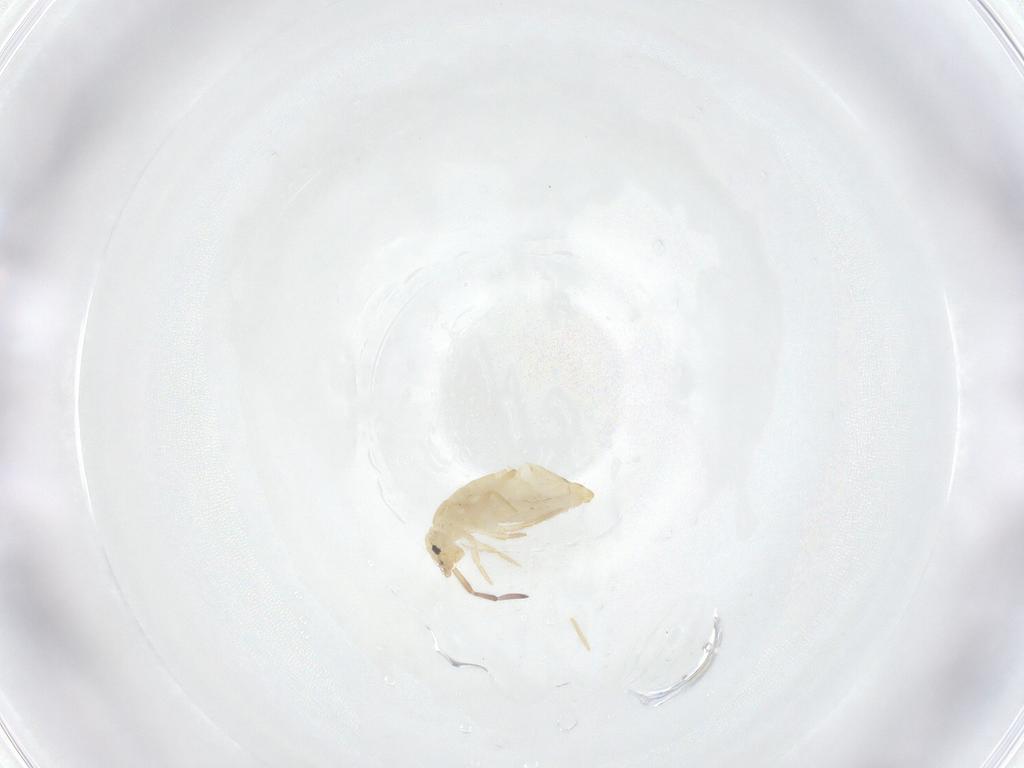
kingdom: Animalia
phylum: Arthropoda
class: Collembola
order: Entomobryomorpha
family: Entomobryidae
